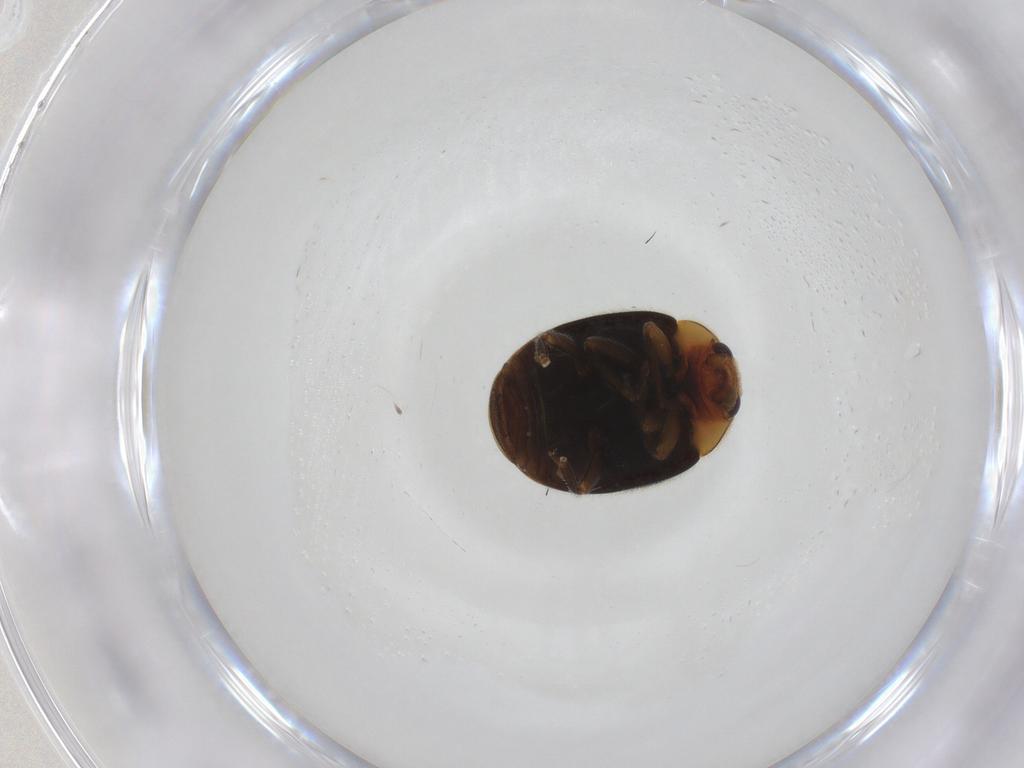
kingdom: Animalia
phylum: Arthropoda
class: Insecta
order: Coleoptera
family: Coccinellidae
